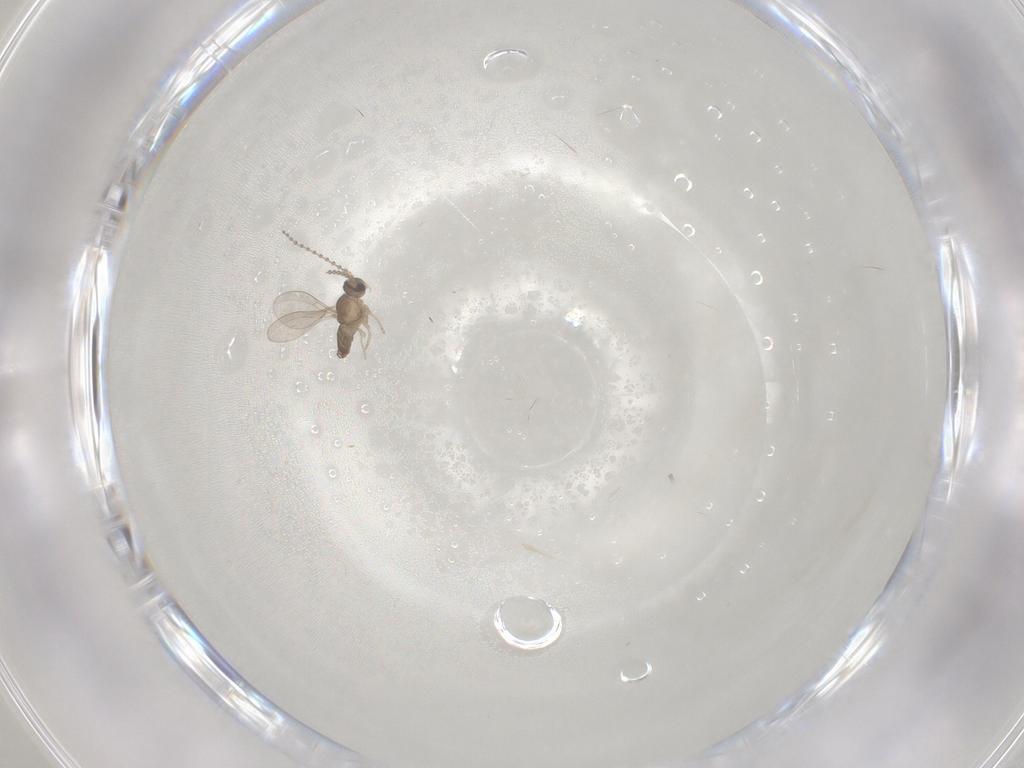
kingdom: Animalia
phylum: Arthropoda
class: Insecta
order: Diptera
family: Cecidomyiidae
